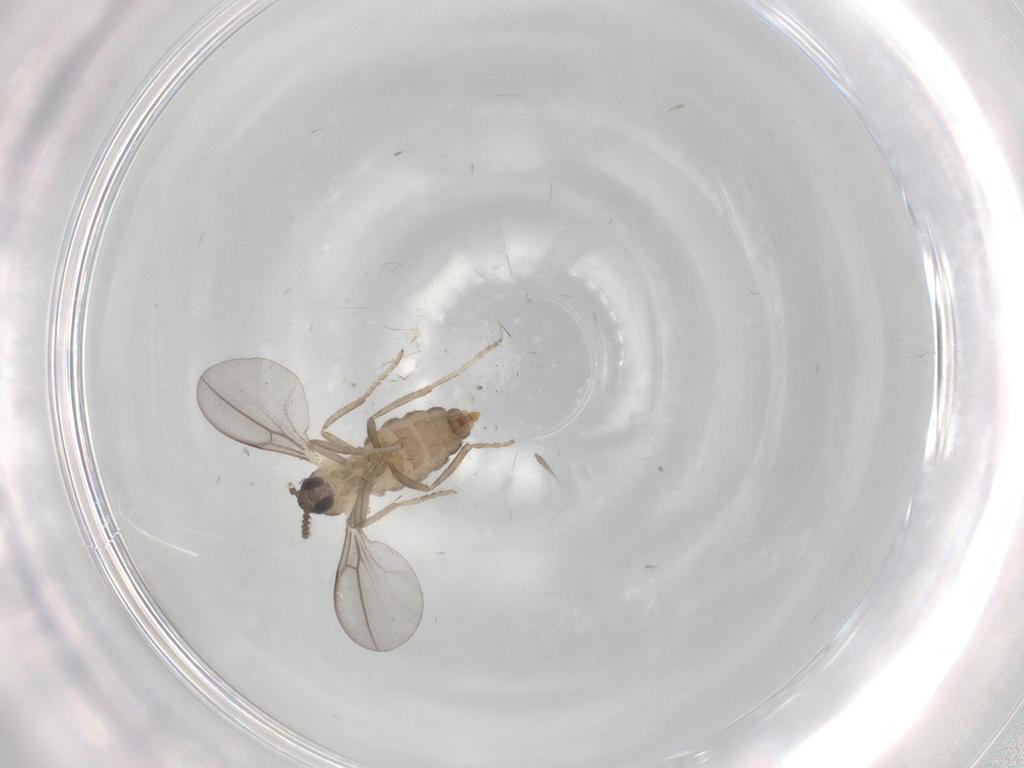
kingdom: Animalia
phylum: Arthropoda
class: Insecta
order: Diptera
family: Cecidomyiidae
